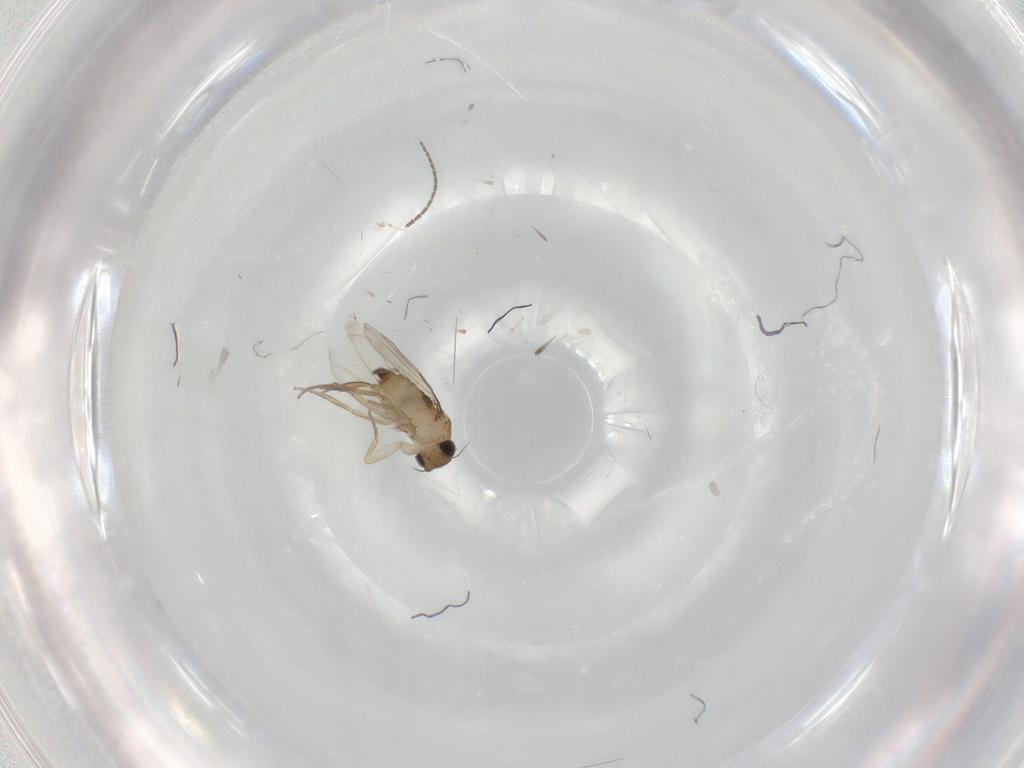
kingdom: Animalia
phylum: Arthropoda
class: Insecta
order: Diptera
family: Phoridae
